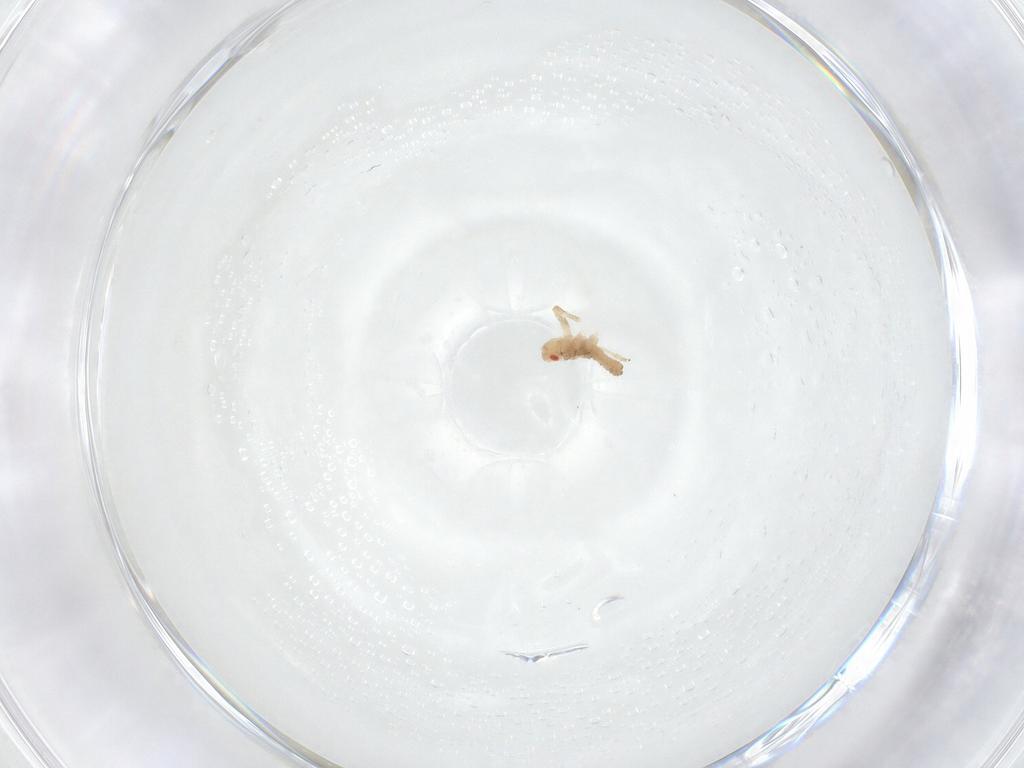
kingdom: Animalia
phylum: Arthropoda
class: Insecta
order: Hemiptera
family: Aphididae
